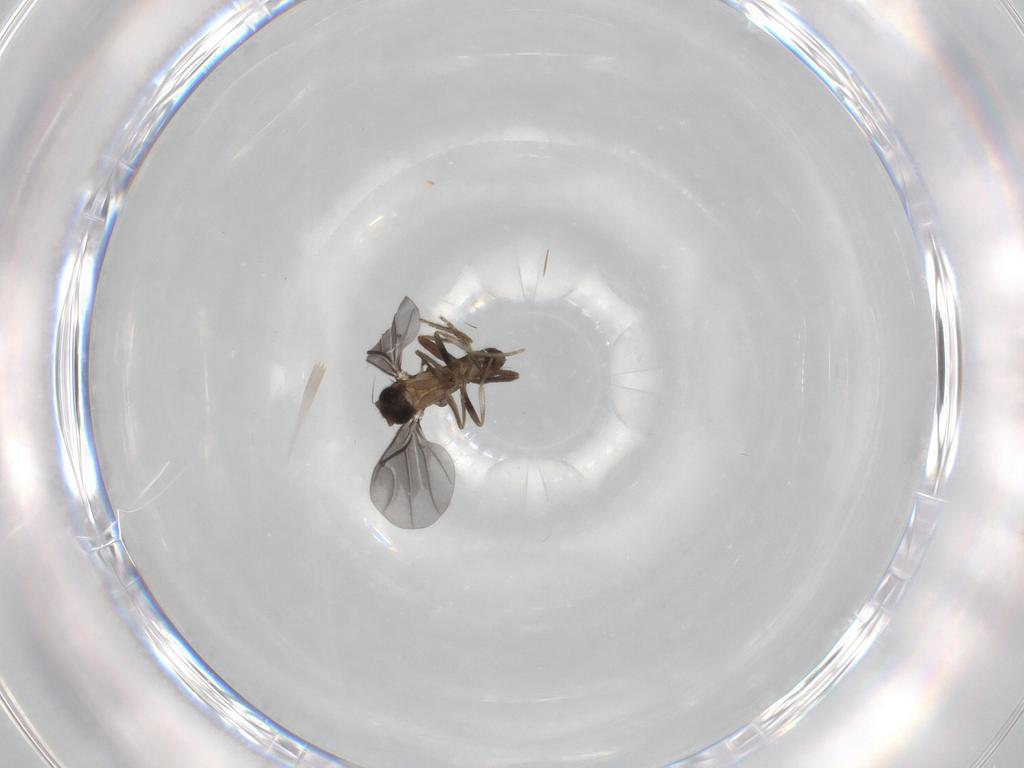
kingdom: Animalia
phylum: Arthropoda
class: Insecta
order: Diptera
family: Phoridae
